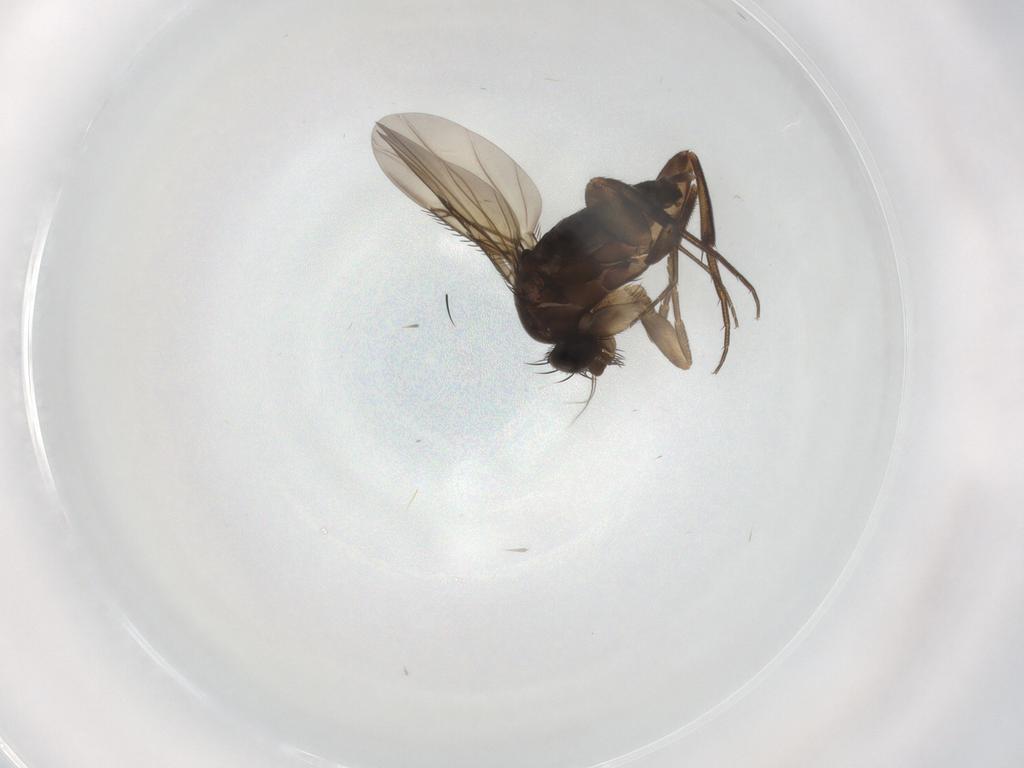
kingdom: Animalia
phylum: Arthropoda
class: Insecta
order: Diptera
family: Phoridae
